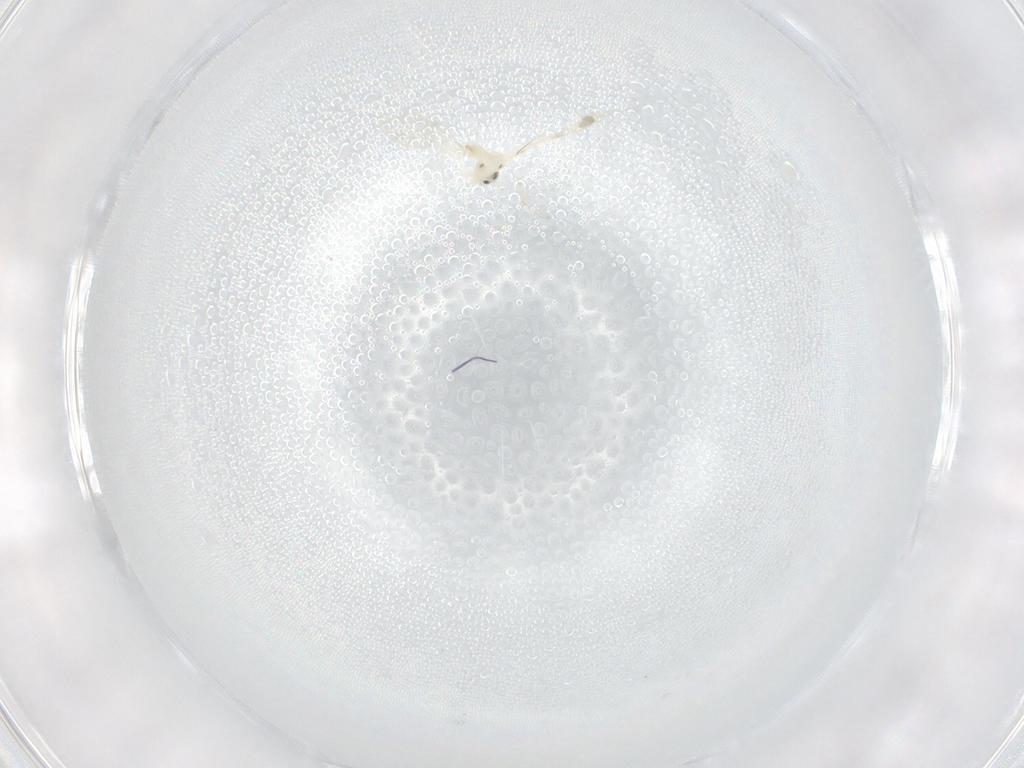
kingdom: Animalia
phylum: Arthropoda
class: Insecta
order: Diptera
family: Cecidomyiidae
